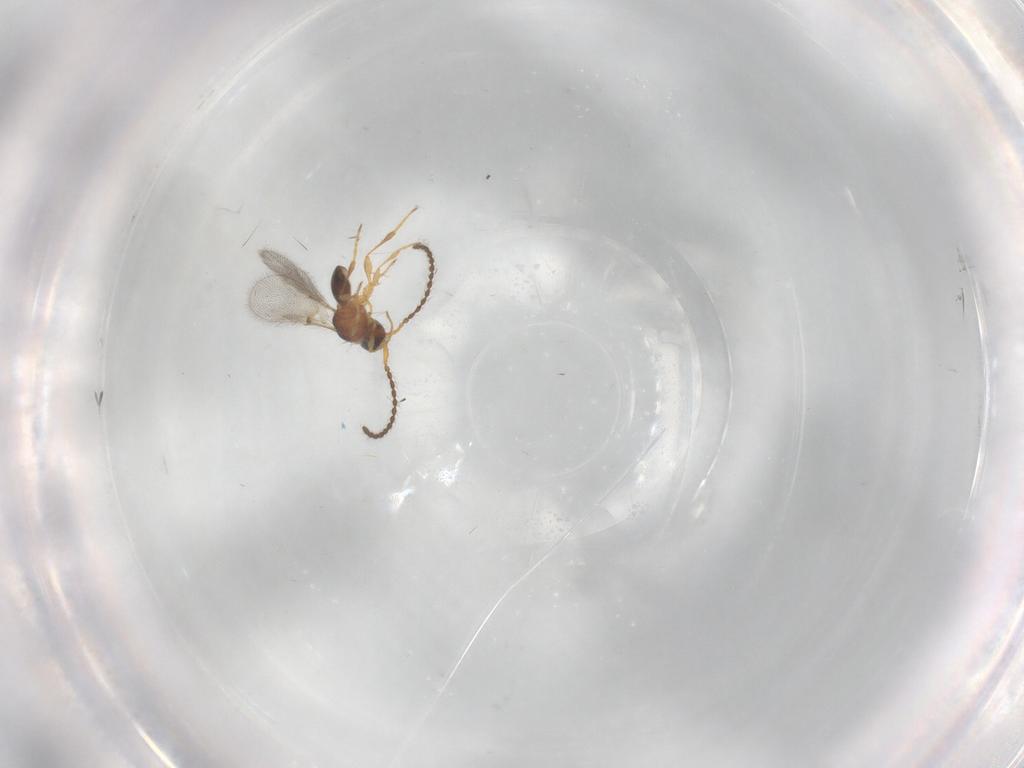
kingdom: Animalia
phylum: Arthropoda
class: Insecta
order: Hymenoptera
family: Diapriidae
